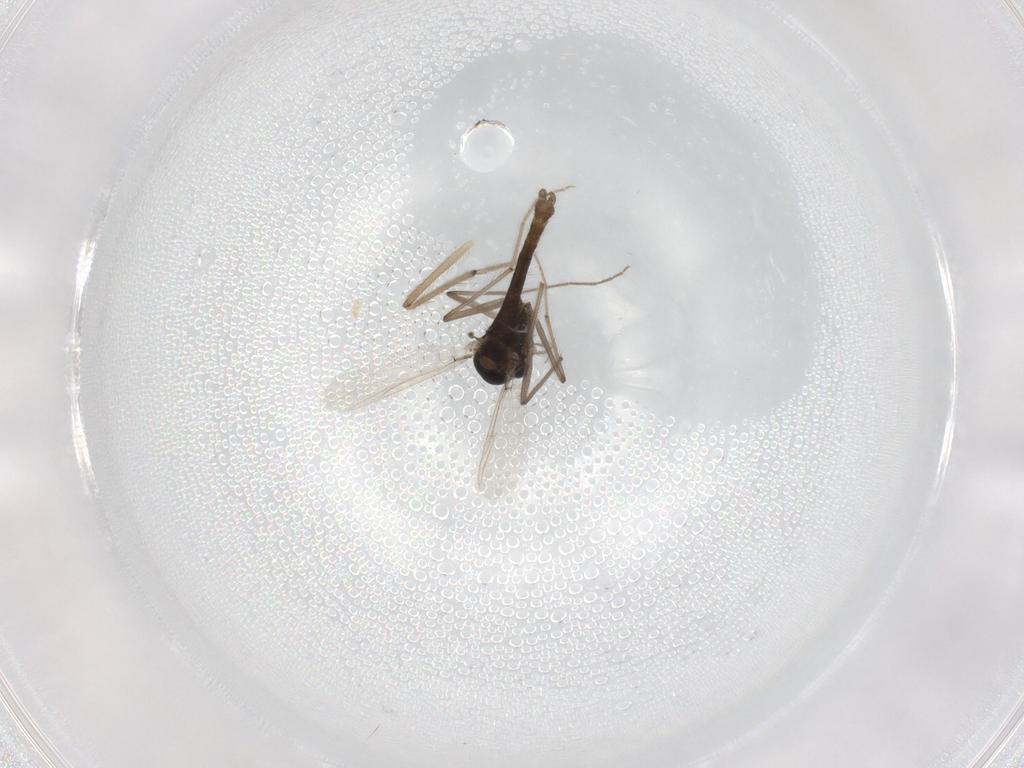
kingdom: Animalia
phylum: Arthropoda
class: Insecta
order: Diptera
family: Chironomidae
